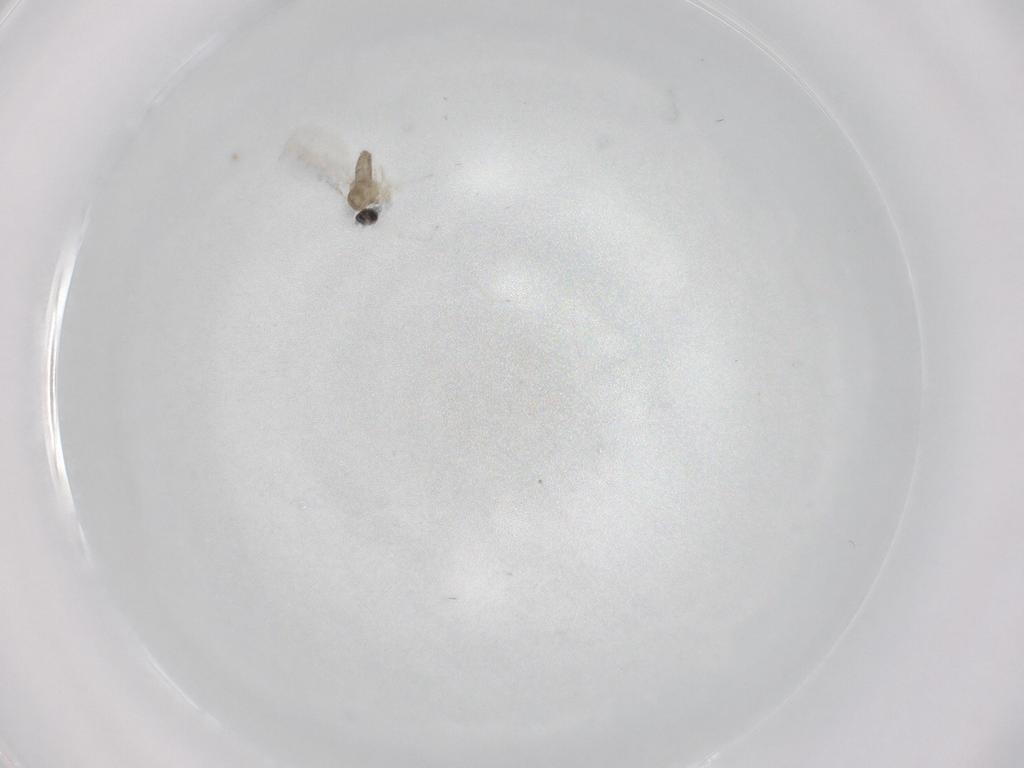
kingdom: Animalia
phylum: Arthropoda
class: Insecta
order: Diptera
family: Cecidomyiidae
